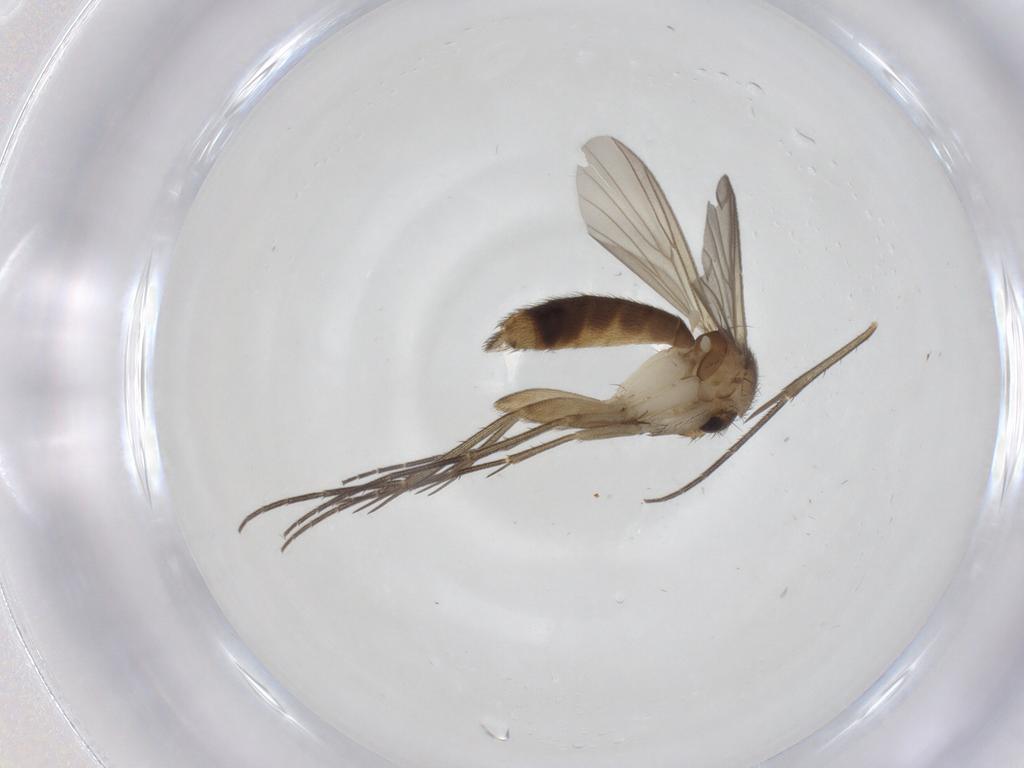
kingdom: Animalia
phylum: Arthropoda
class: Insecta
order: Diptera
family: Mycetophilidae
